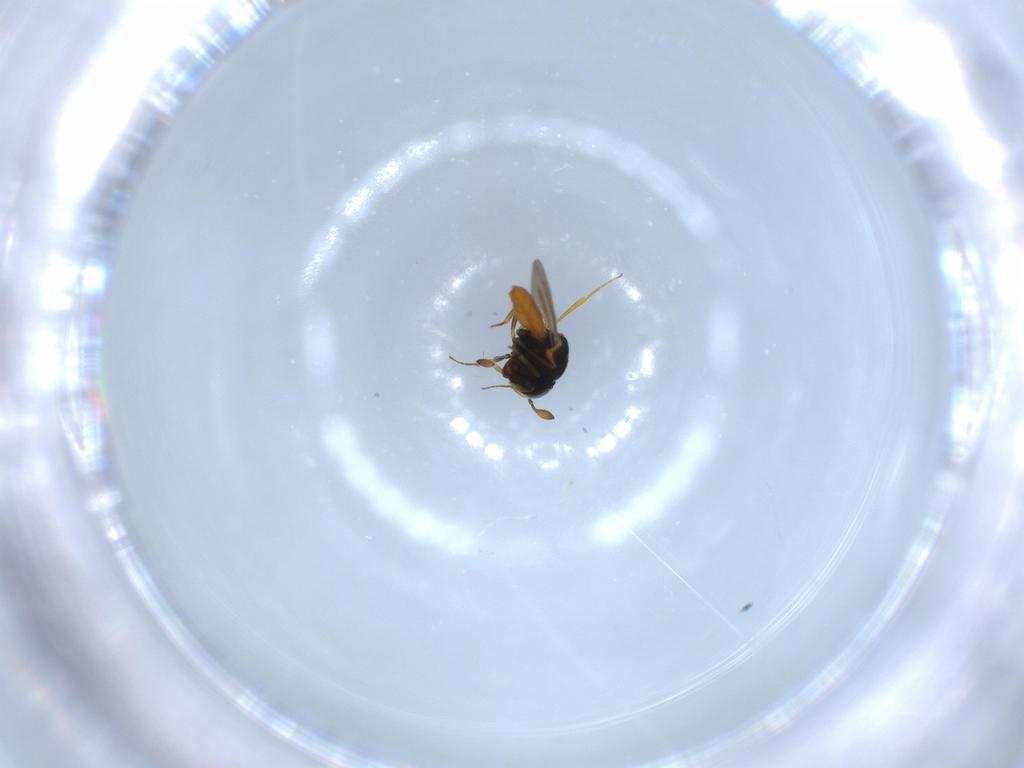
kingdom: Animalia
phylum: Arthropoda
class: Insecta
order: Hymenoptera
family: Scelionidae
